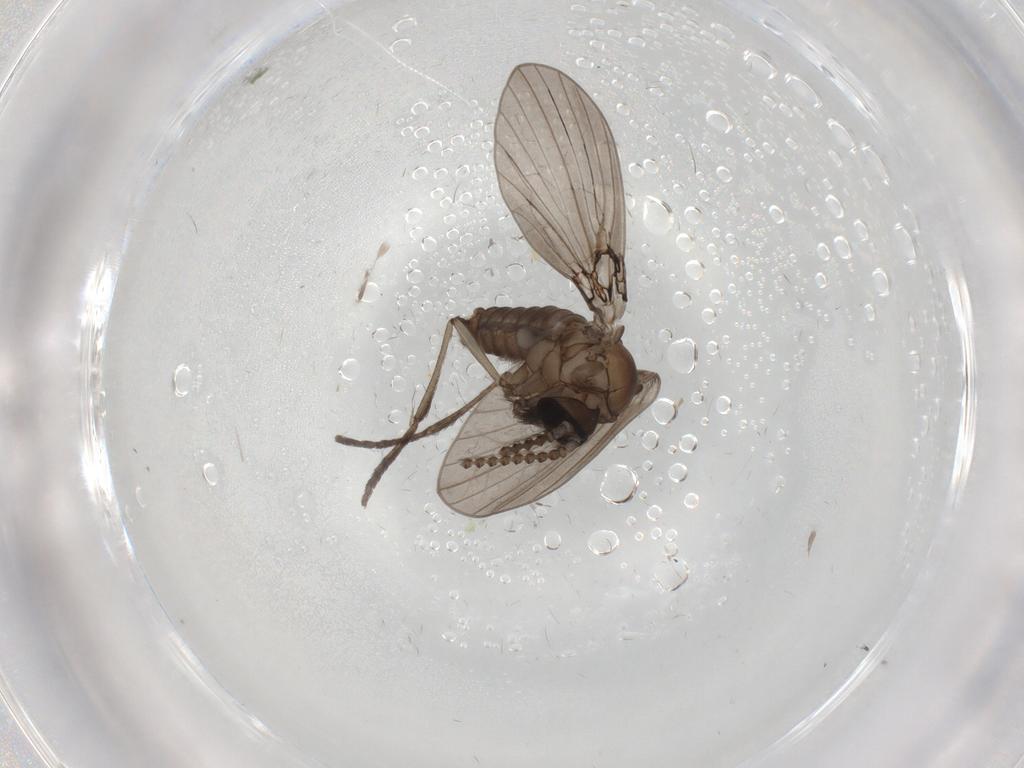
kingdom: Animalia
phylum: Arthropoda
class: Insecta
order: Diptera
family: Psychodidae
